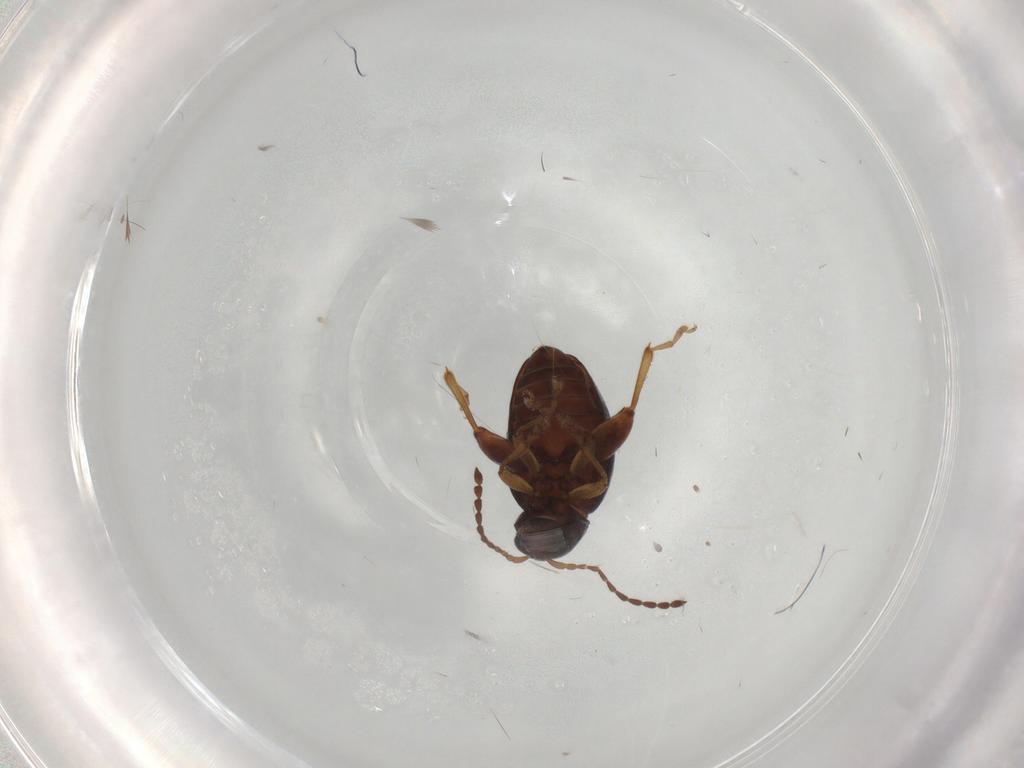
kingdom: Animalia
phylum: Arthropoda
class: Insecta
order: Coleoptera
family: Chrysomelidae
